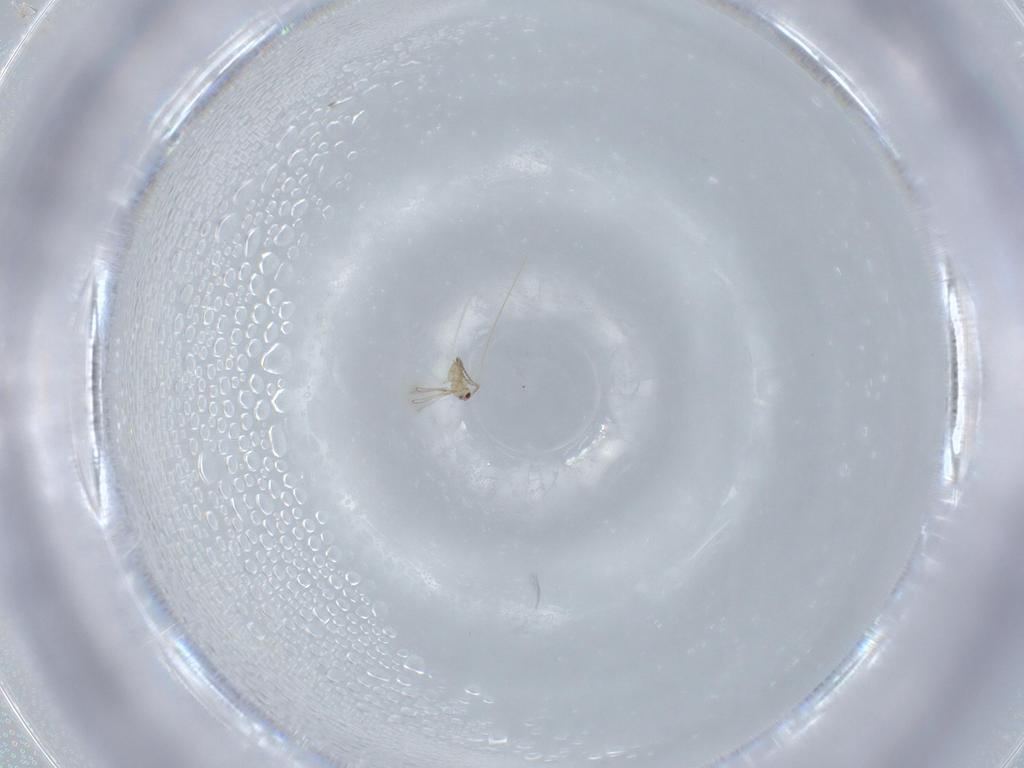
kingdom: Animalia
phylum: Arthropoda
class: Insecta
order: Hymenoptera
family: Mymaridae
